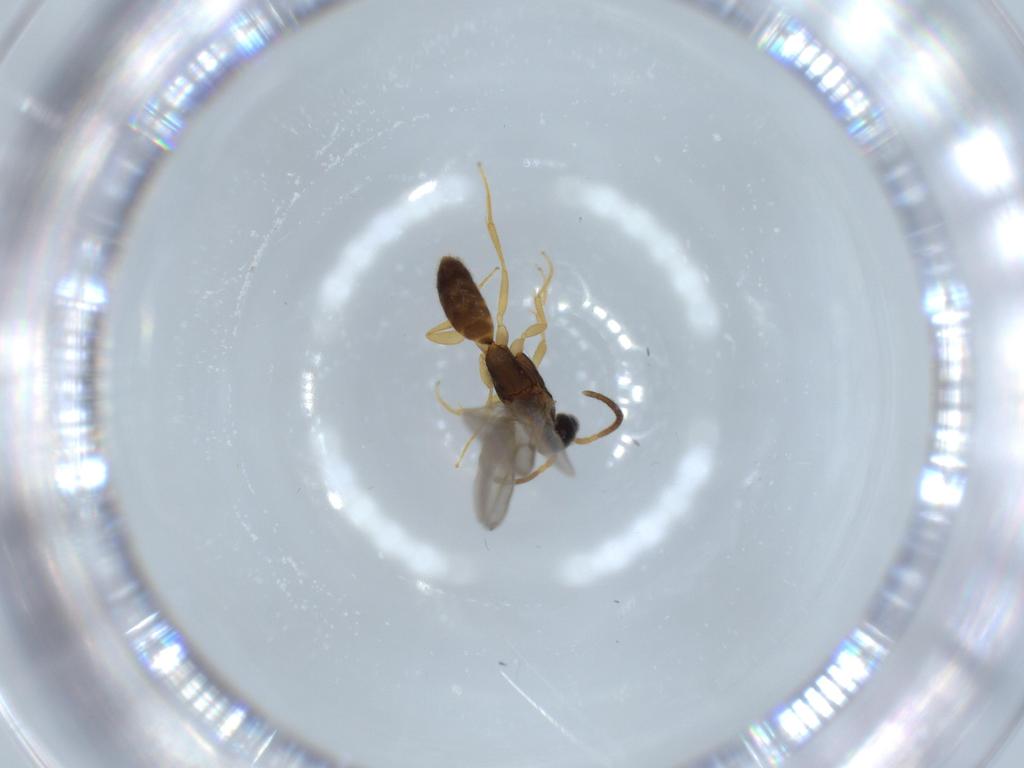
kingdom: Animalia
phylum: Arthropoda
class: Insecta
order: Hymenoptera
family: Bethylidae
